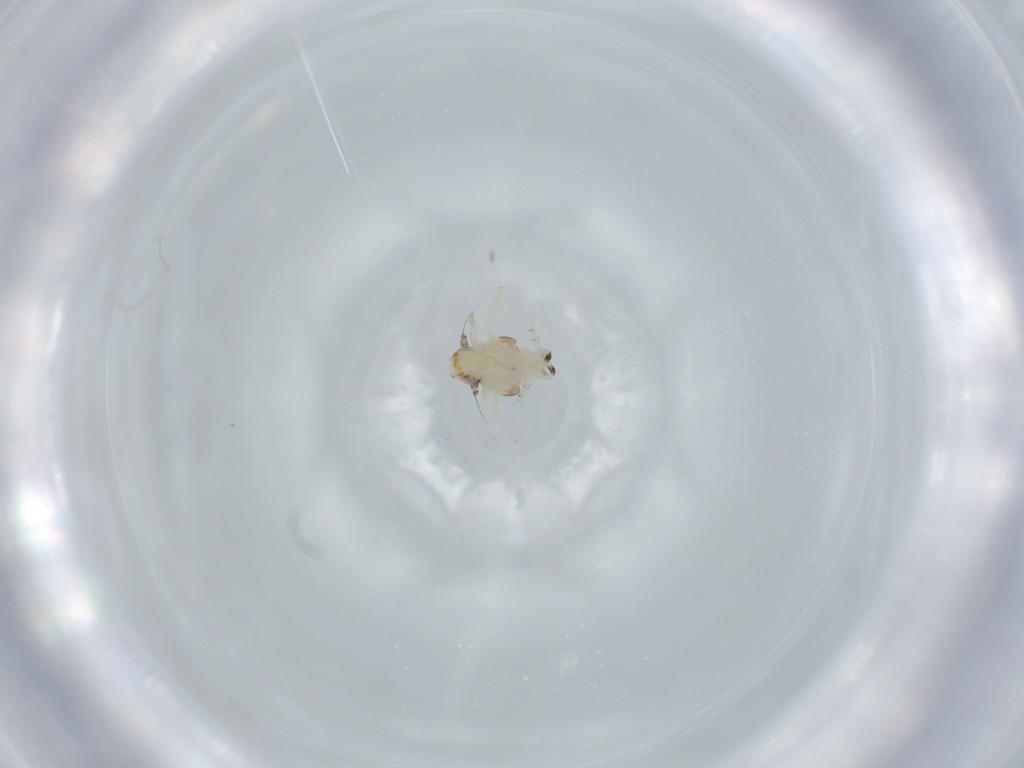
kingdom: Animalia
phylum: Arthropoda
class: Insecta
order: Hemiptera
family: Nogodinidae
